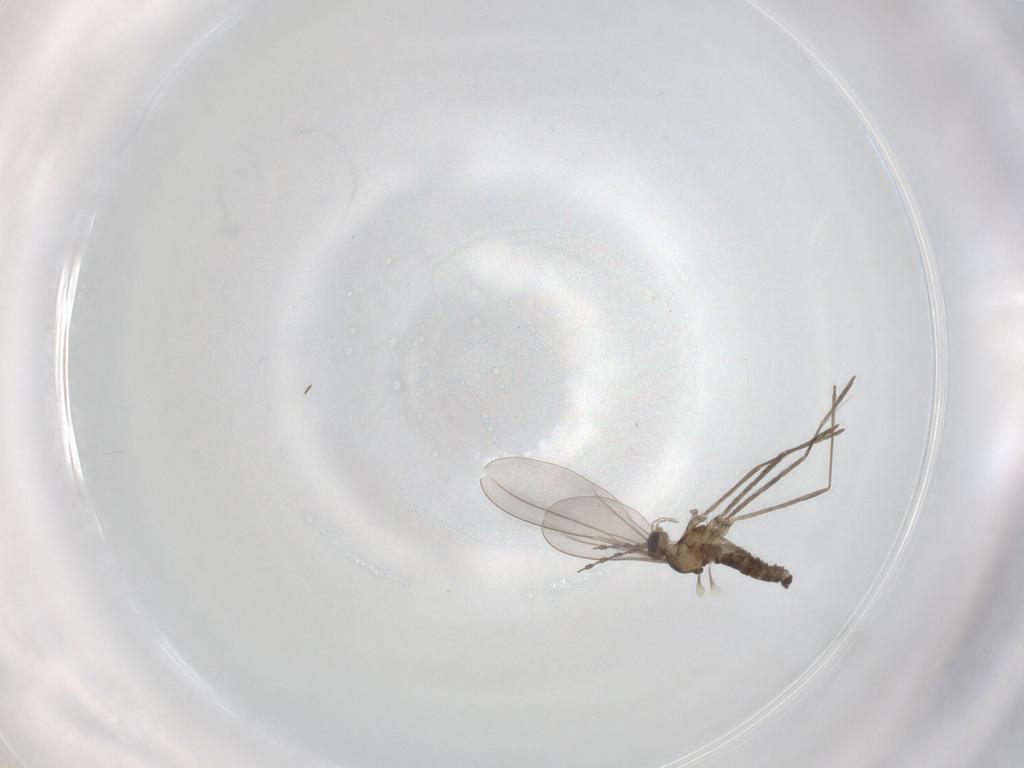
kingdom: Animalia
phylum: Arthropoda
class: Insecta
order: Diptera
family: Cecidomyiidae
